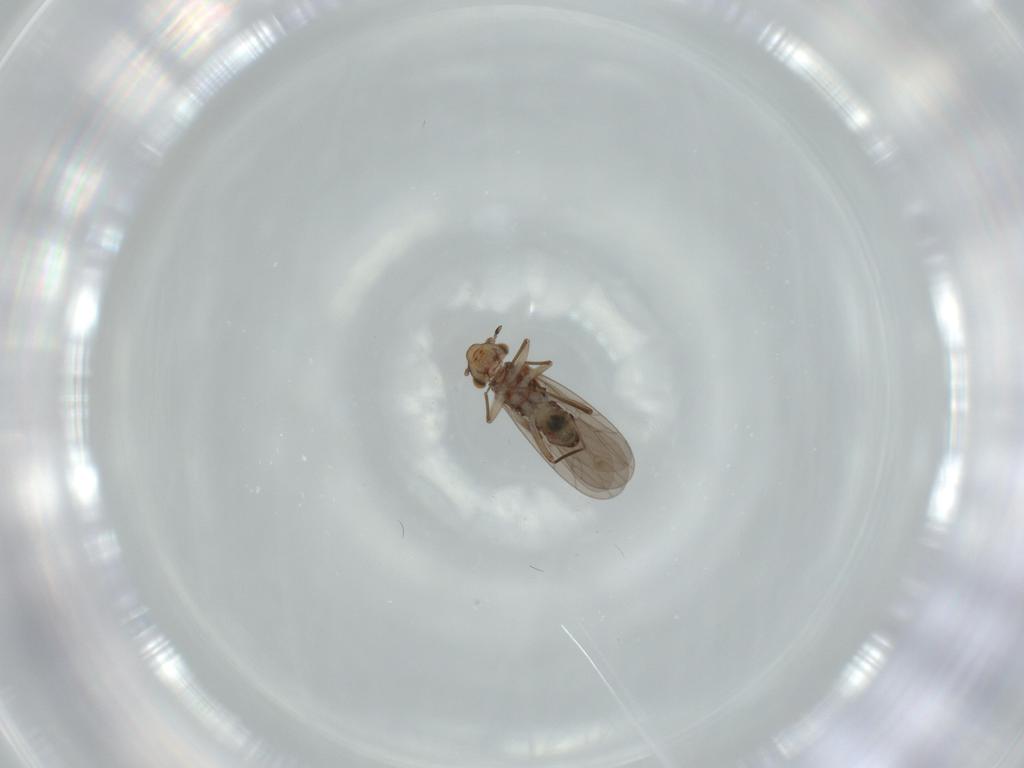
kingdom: Animalia
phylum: Arthropoda
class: Insecta
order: Psocodea
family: Lepidopsocidae
